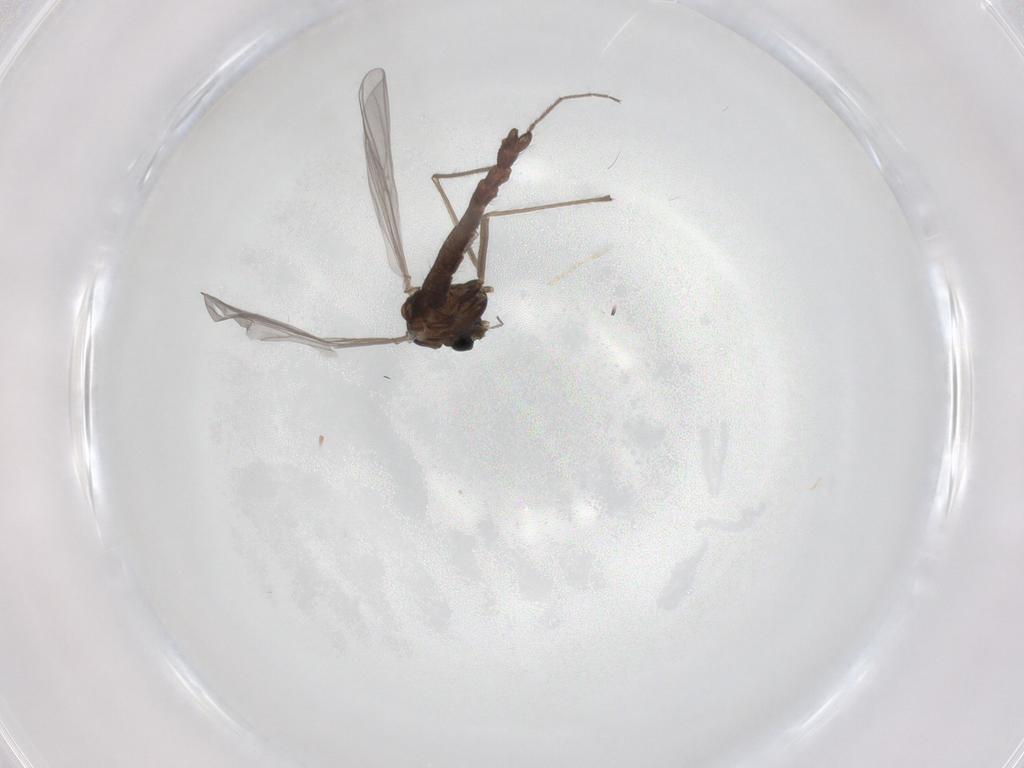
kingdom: Animalia
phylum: Arthropoda
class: Insecta
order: Diptera
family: Chironomidae
